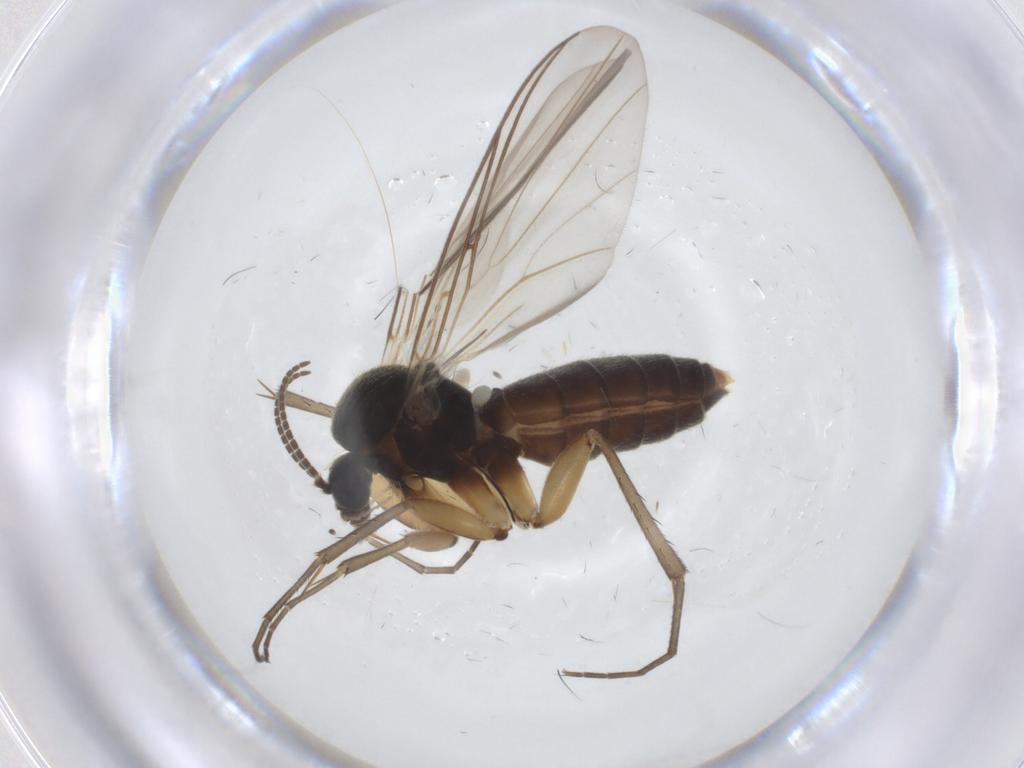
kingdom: Animalia
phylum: Arthropoda
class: Insecta
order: Diptera
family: Mycetophilidae
